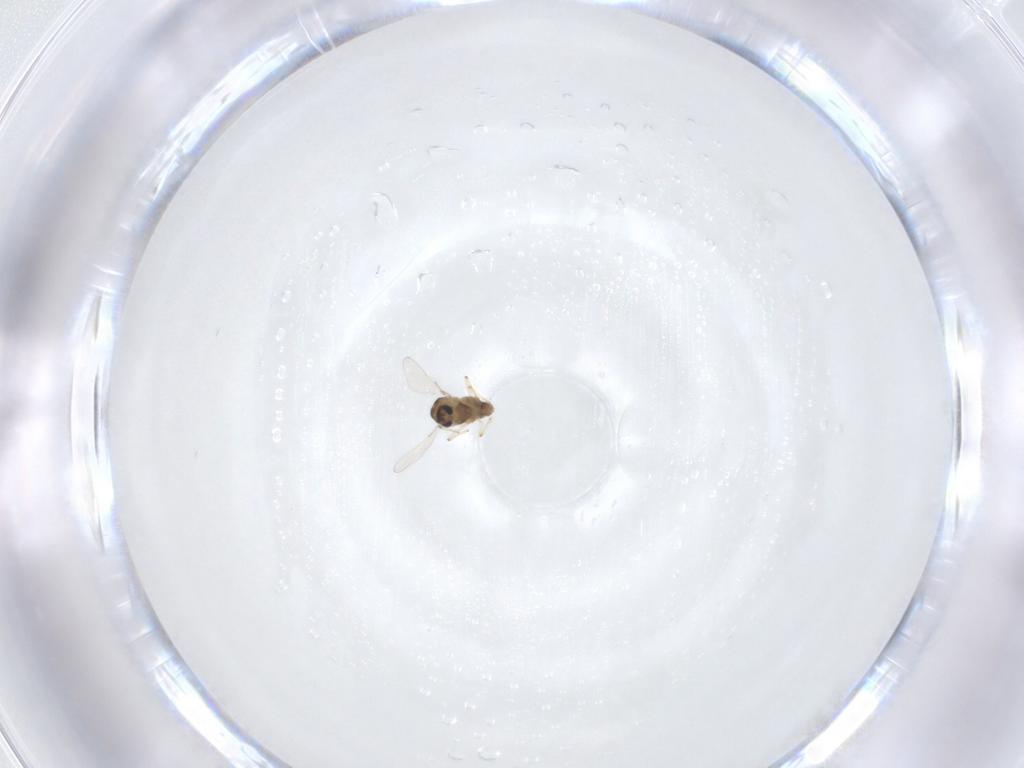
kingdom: Animalia
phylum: Arthropoda
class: Insecta
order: Diptera
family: Chironomidae
